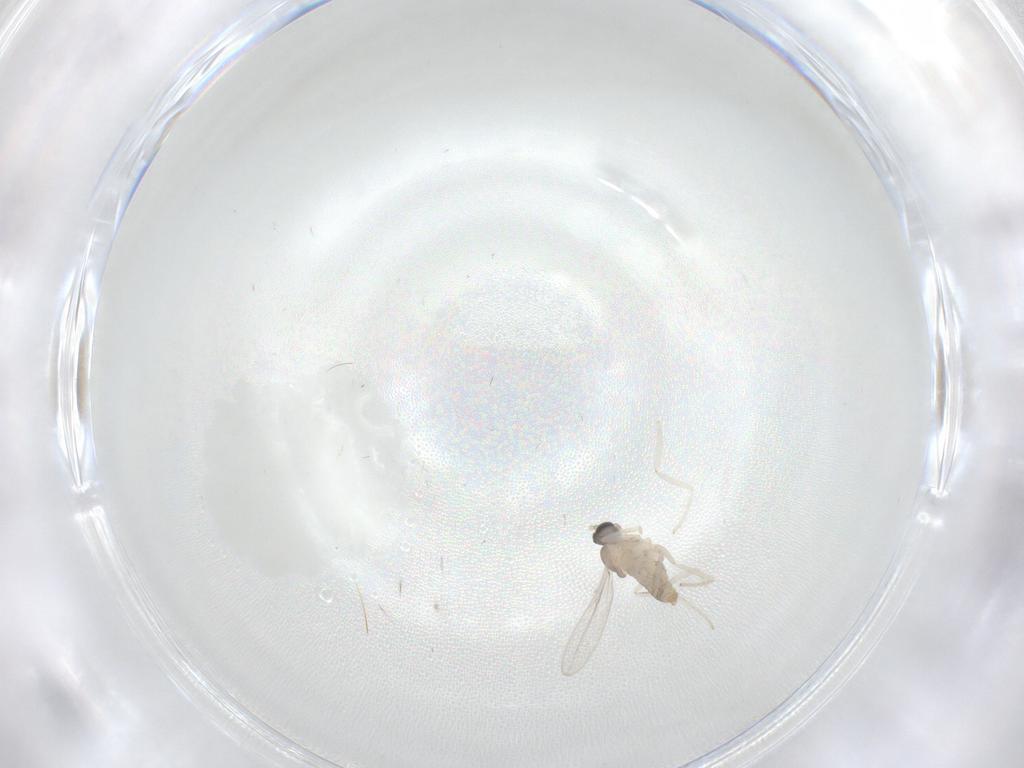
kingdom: Animalia
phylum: Arthropoda
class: Insecta
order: Diptera
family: Cecidomyiidae
